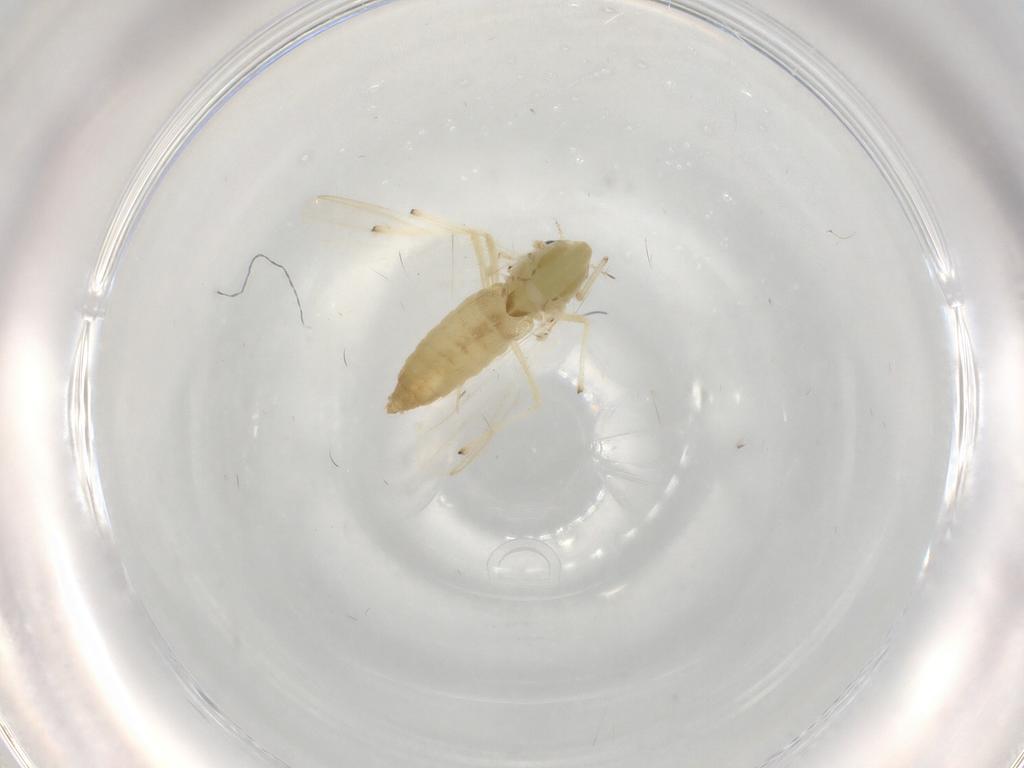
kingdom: Animalia
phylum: Arthropoda
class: Insecta
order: Diptera
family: Chironomidae
